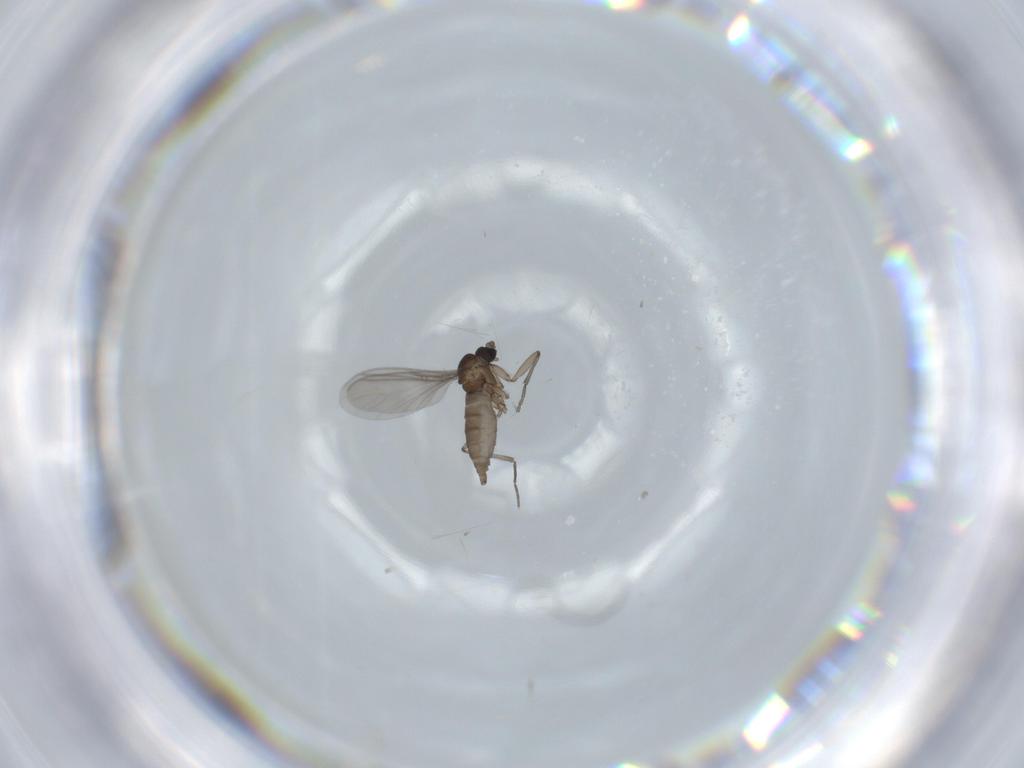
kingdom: Animalia
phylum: Arthropoda
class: Insecta
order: Diptera
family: Sciaridae
